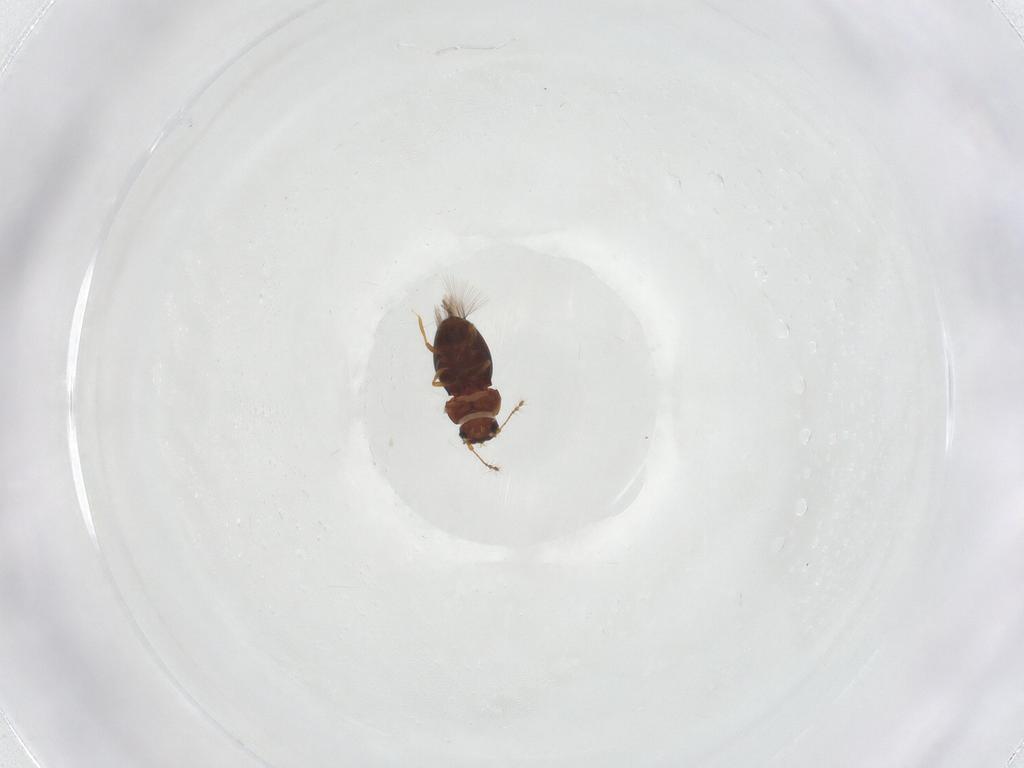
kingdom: Animalia
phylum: Arthropoda
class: Insecta
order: Coleoptera
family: Ptiliidae
